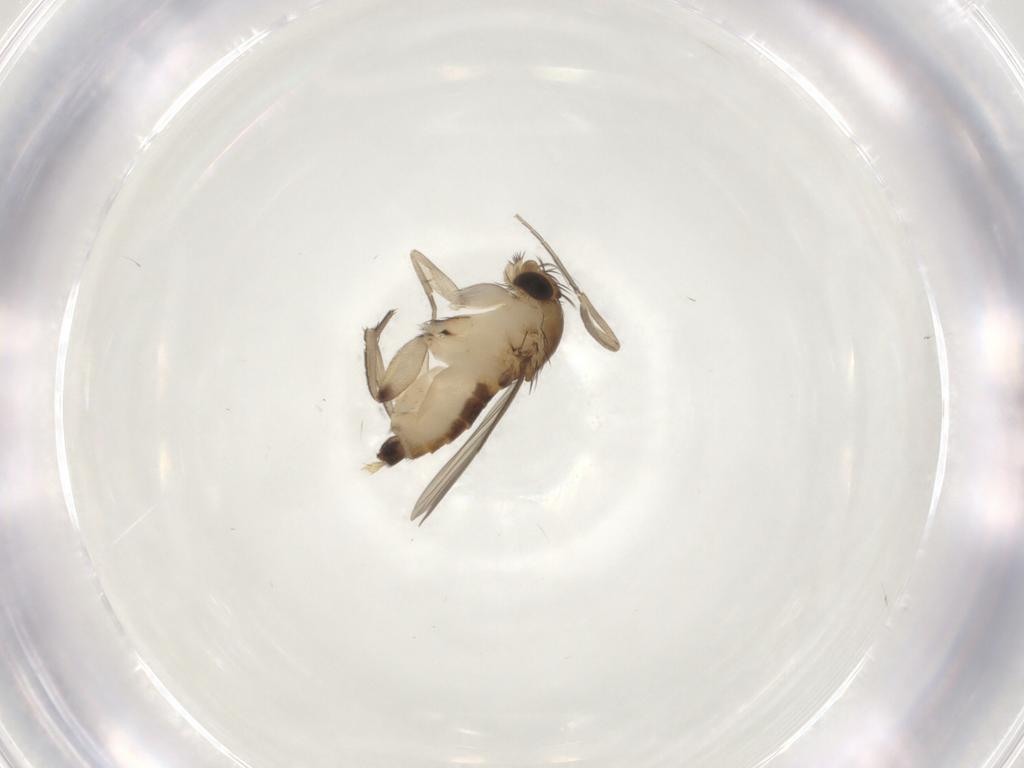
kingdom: Animalia
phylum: Arthropoda
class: Insecta
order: Diptera
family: Phoridae
